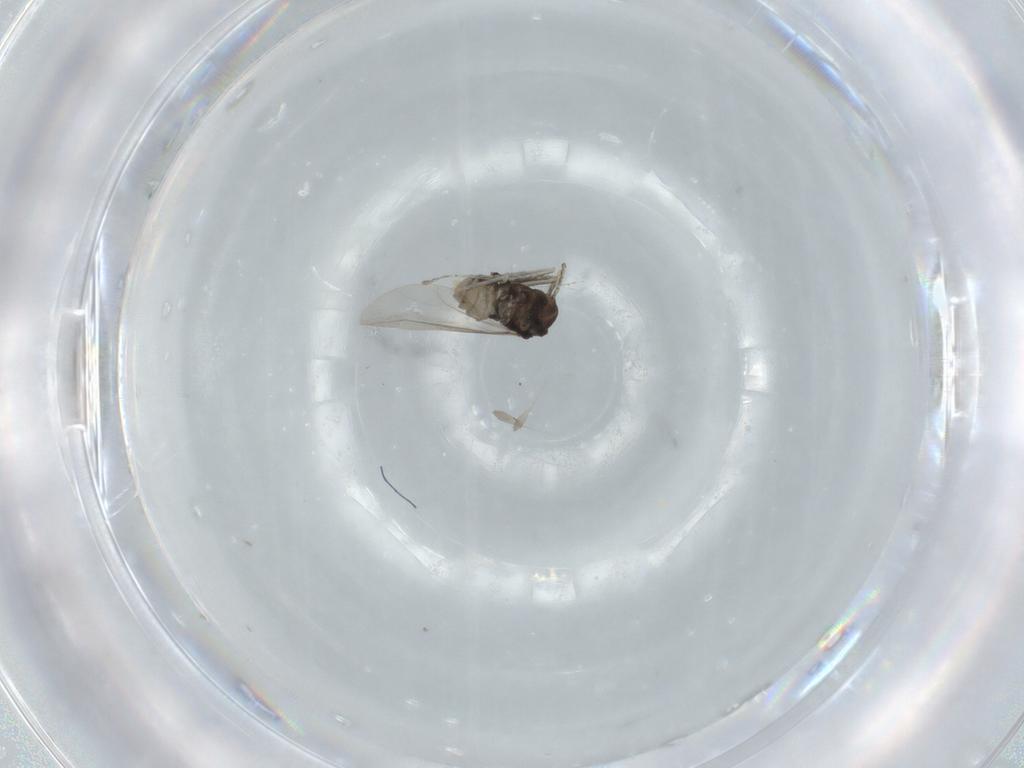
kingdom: Animalia
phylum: Arthropoda
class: Insecta
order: Diptera
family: Cecidomyiidae
